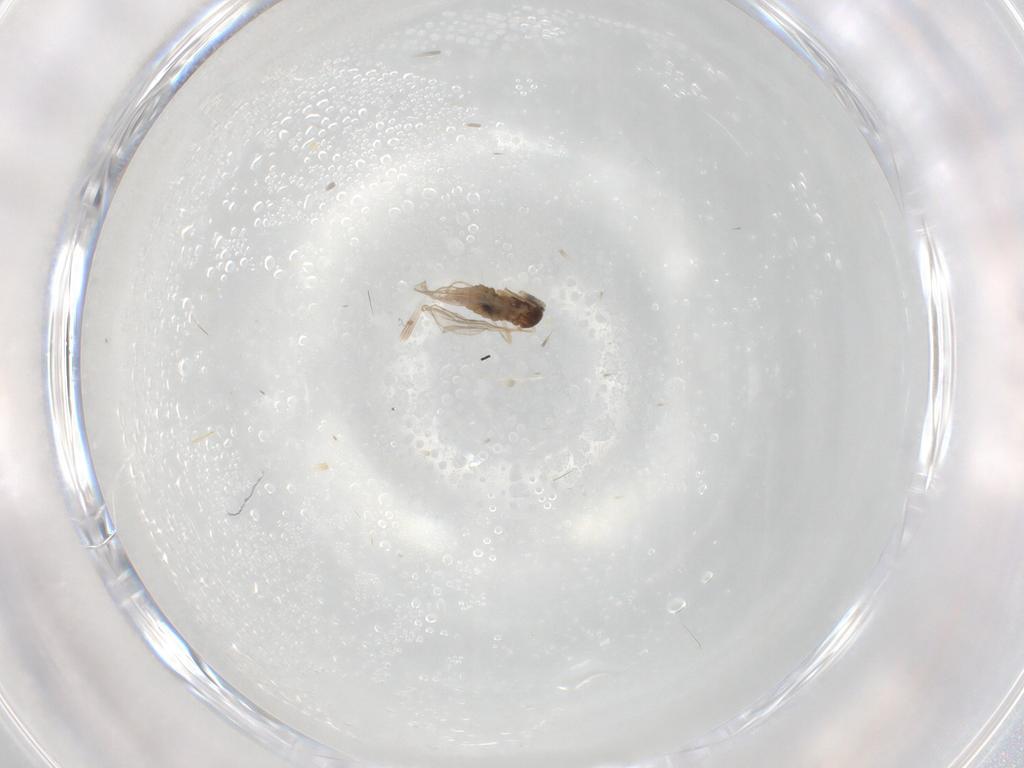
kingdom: Animalia
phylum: Arthropoda
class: Insecta
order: Diptera
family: Cecidomyiidae
